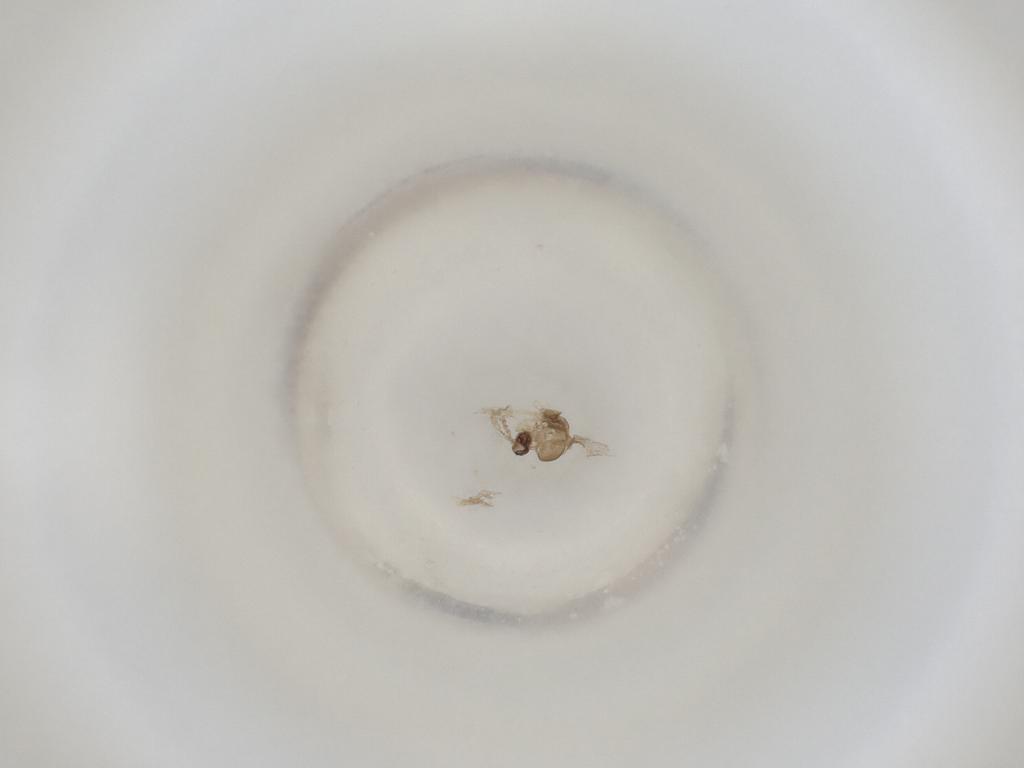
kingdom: Animalia
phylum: Arthropoda
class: Insecta
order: Diptera
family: Cecidomyiidae
